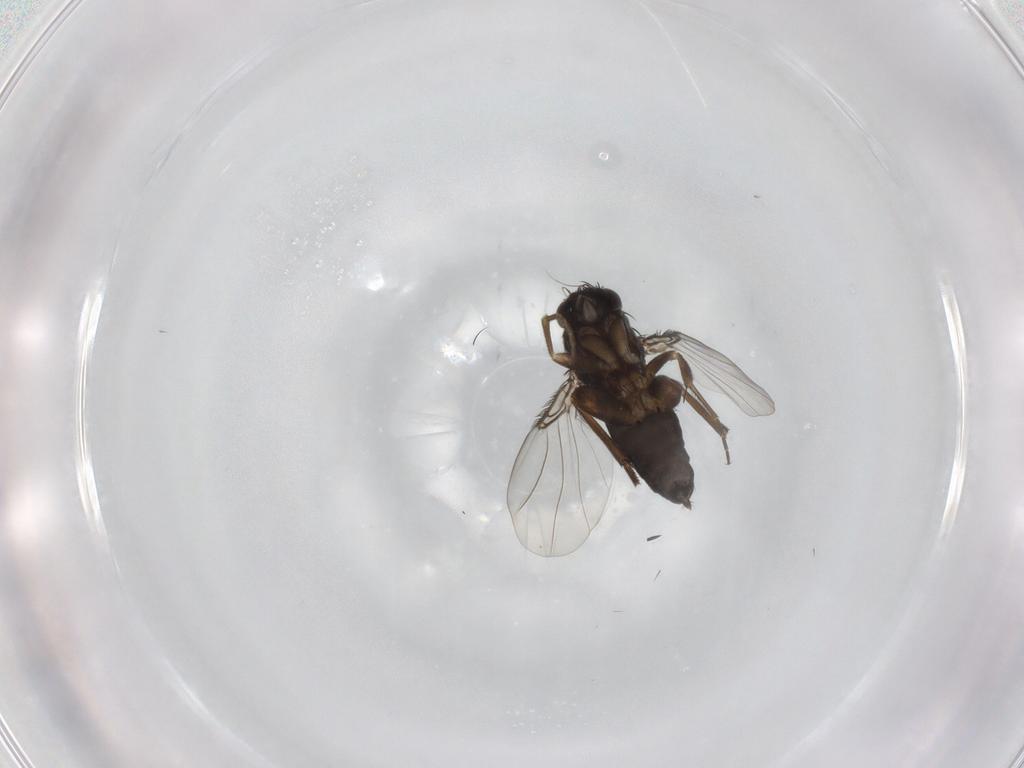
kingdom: Animalia
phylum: Arthropoda
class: Insecta
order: Diptera
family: Phoridae
